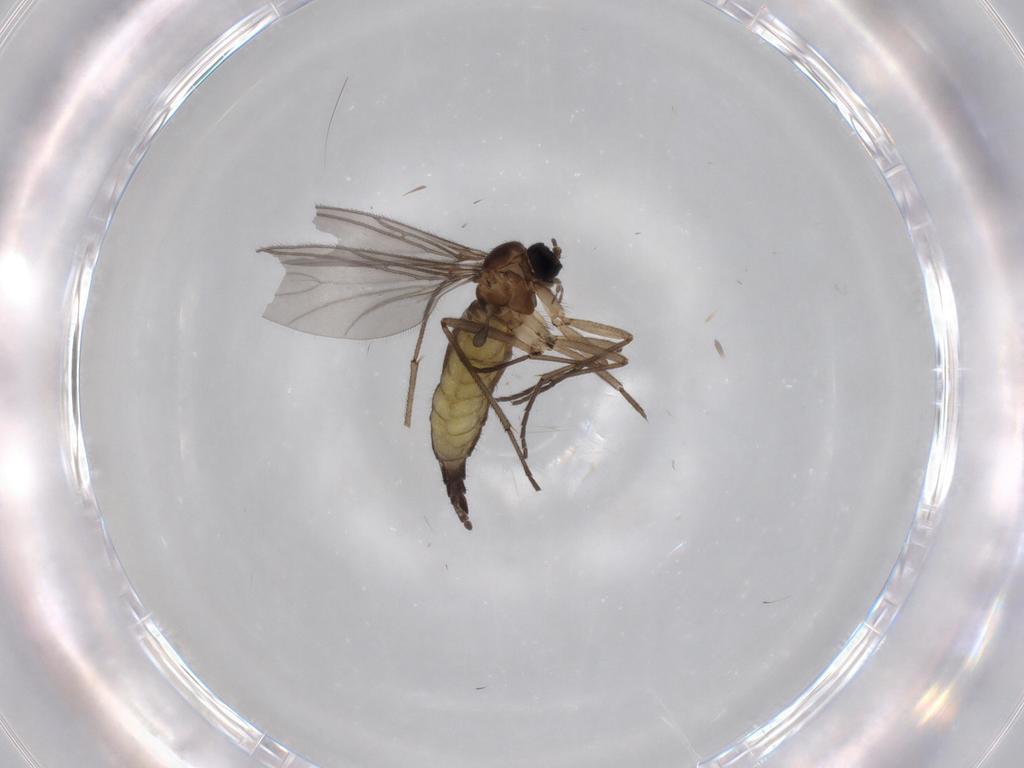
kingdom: Animalia
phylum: Arthropoda
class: Insecta
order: Diptera
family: Sciaridae
